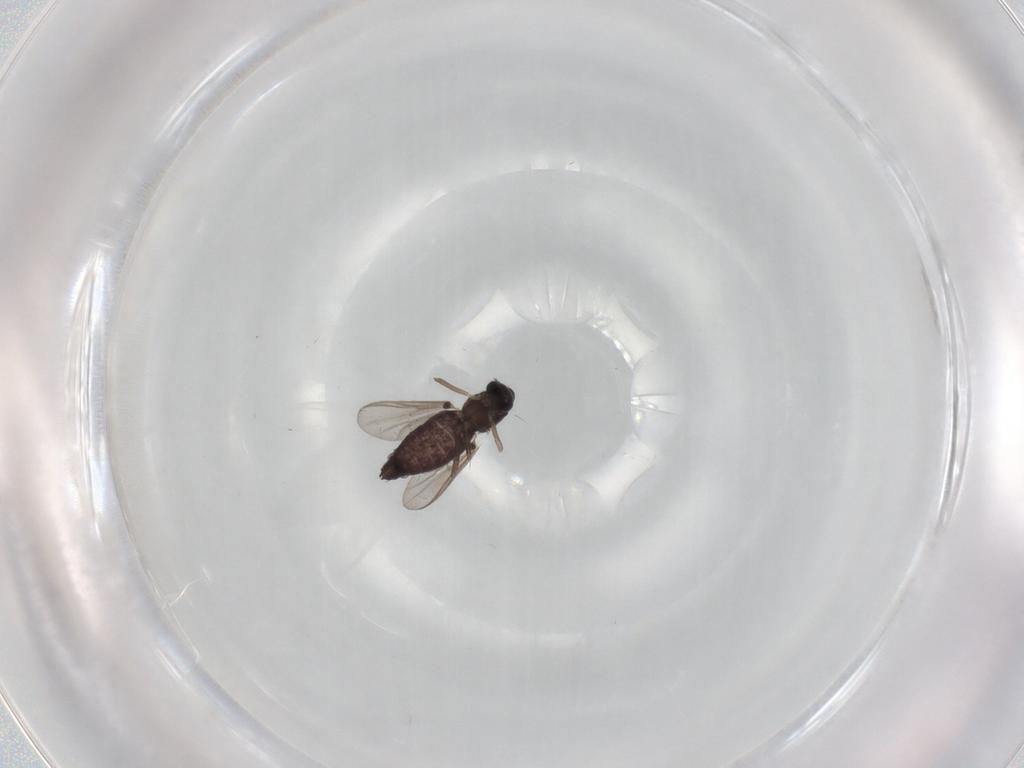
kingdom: Animalia
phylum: Arthropoda
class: Insecta
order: Diptera
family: Chironomidae
